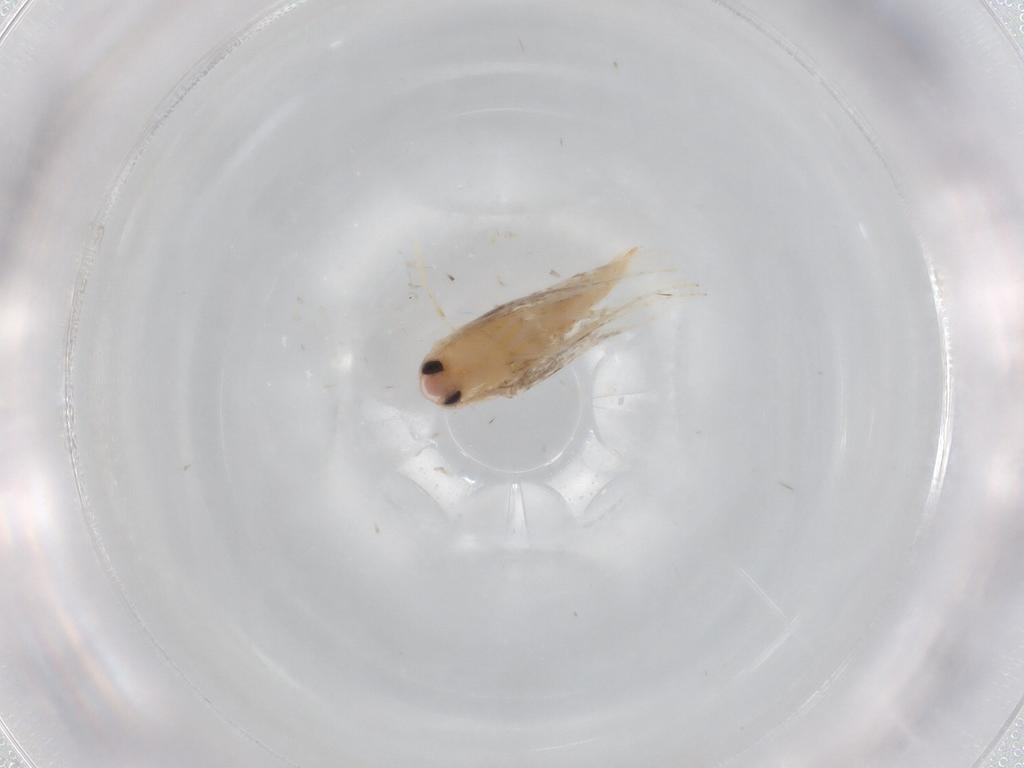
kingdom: Animalia
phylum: Arthropoda
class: Insecta
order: Lepidoptera
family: Lyonetiidae
